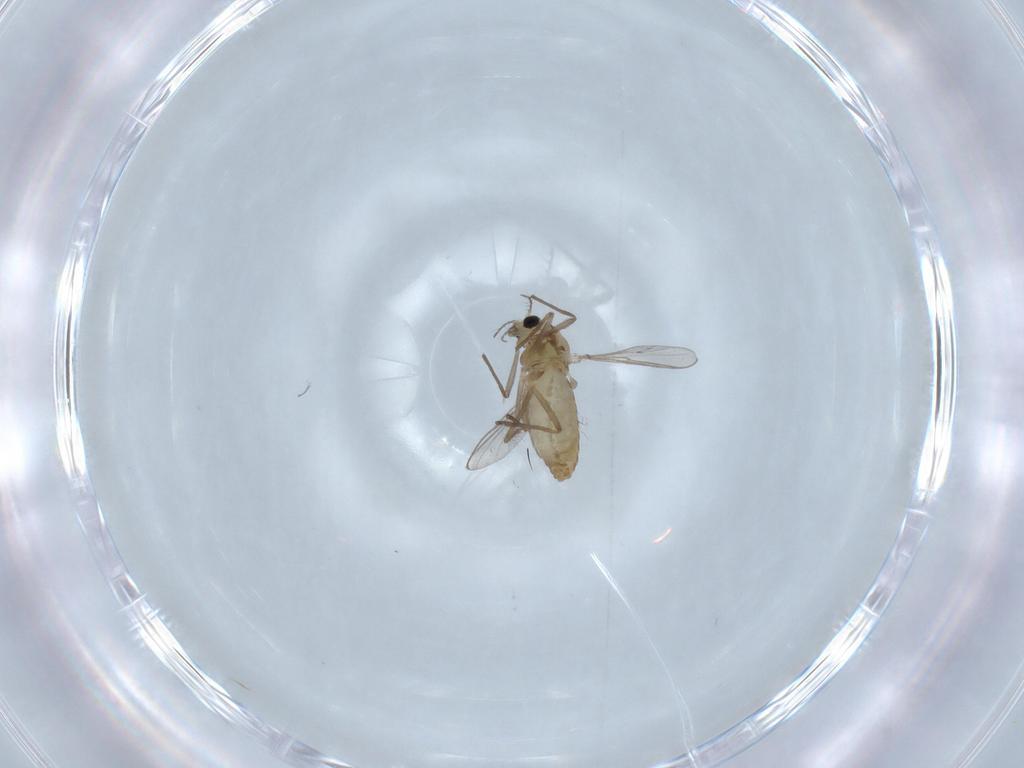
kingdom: Animalia
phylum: Arthropoda
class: Insecta
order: Diptera
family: Chironomidae
